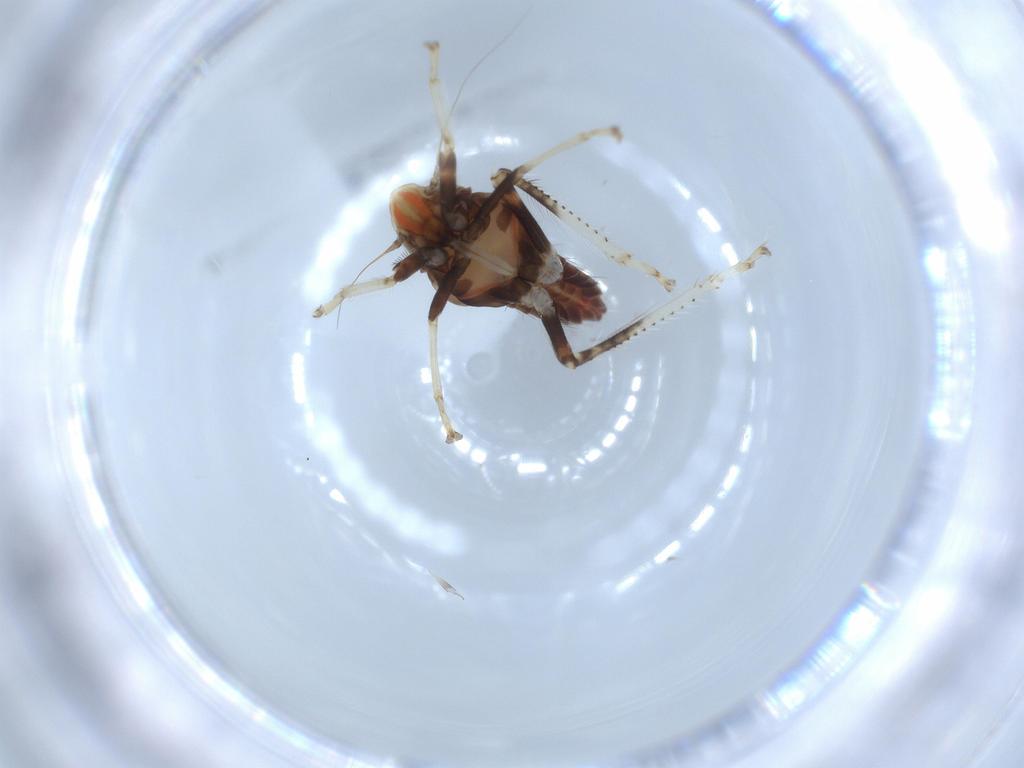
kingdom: Animalia
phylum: Arthropoda
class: Insecta
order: Hemiptera
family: Cicadellidae
